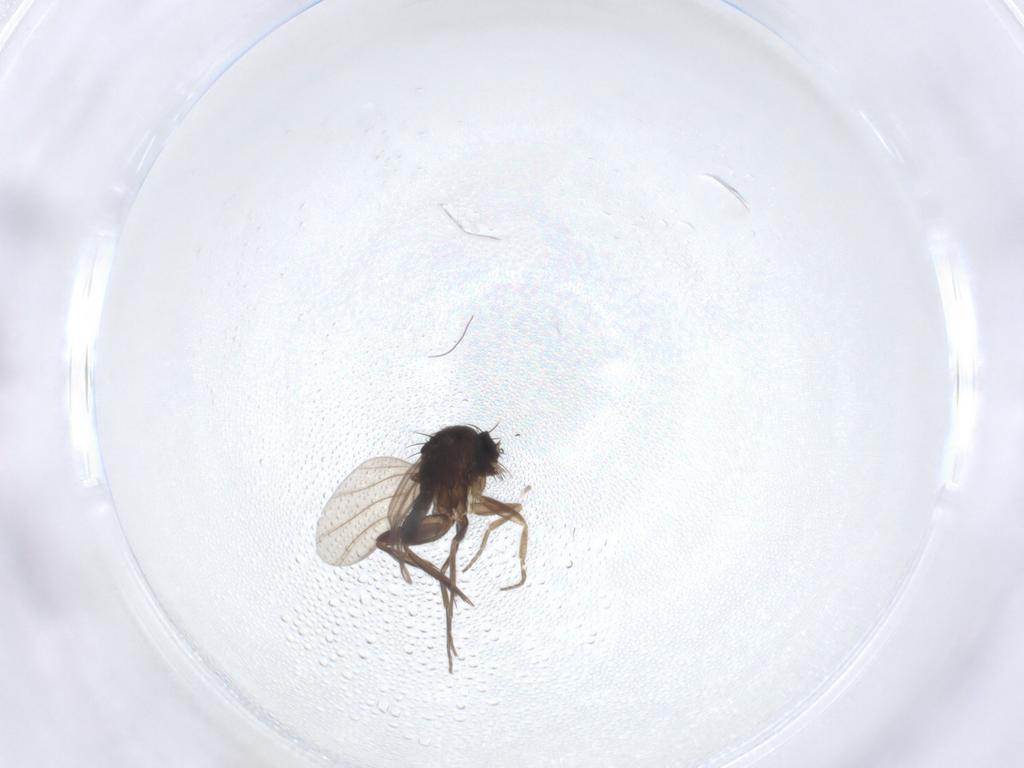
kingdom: Animalia
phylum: Arthropoda
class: Insecta
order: Diptera
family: Phoridae
